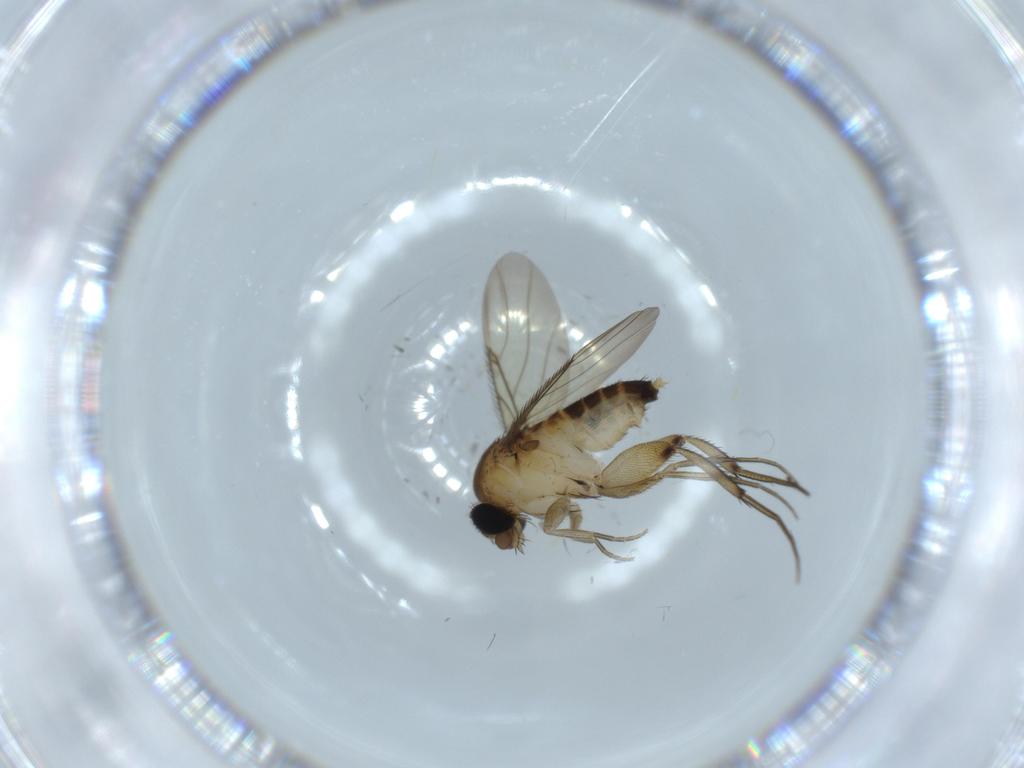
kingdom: Animalia
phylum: Arthropoda
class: Insecta
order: Diptera
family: Phoridae
